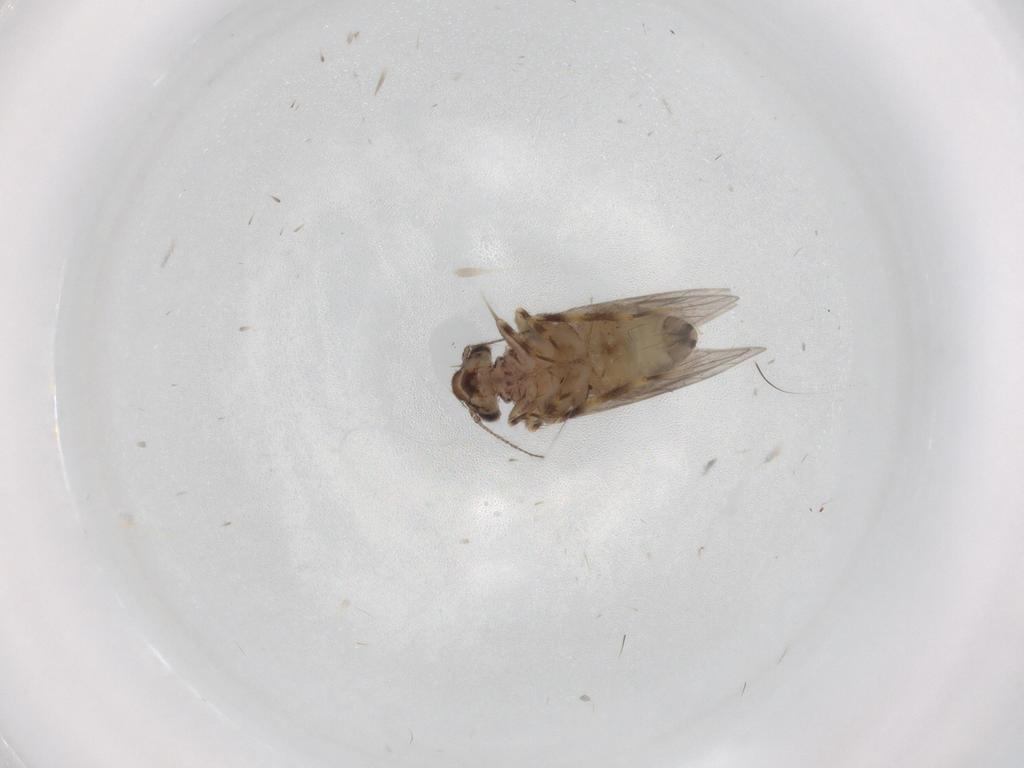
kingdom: Animalia
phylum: Arthropoda
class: Insecta
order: Psocodea
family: Lepidopsocidae
